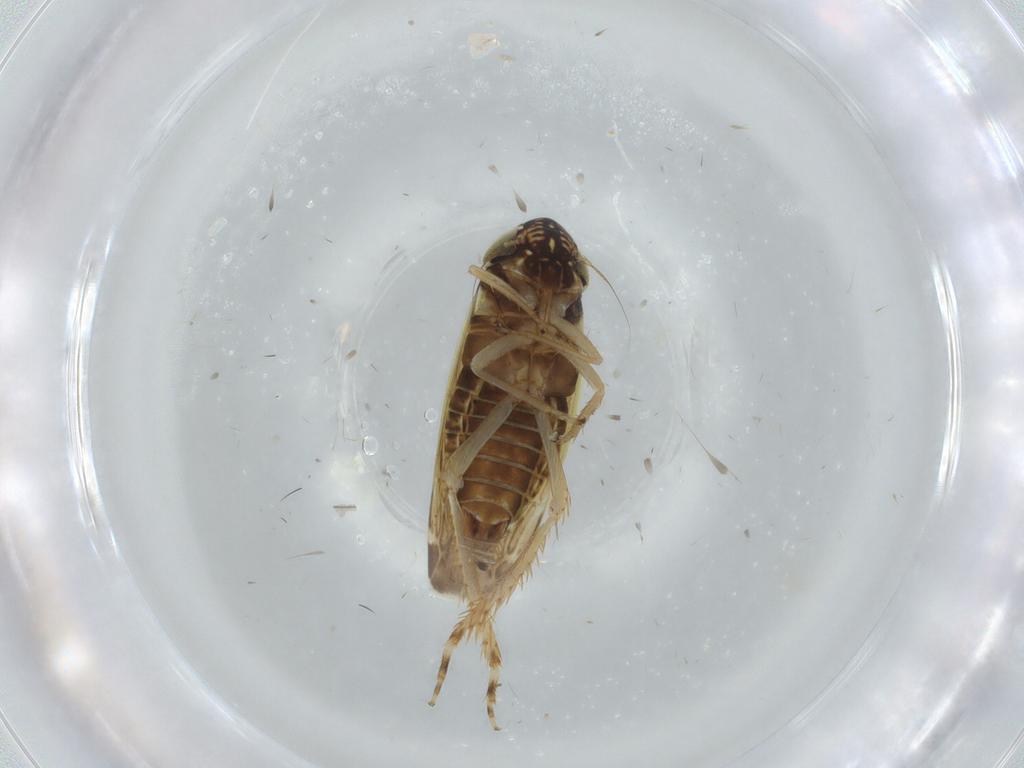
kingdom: Animalia
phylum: Arthropoda
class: Insecta
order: Hemiptera
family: Cicadellidae
